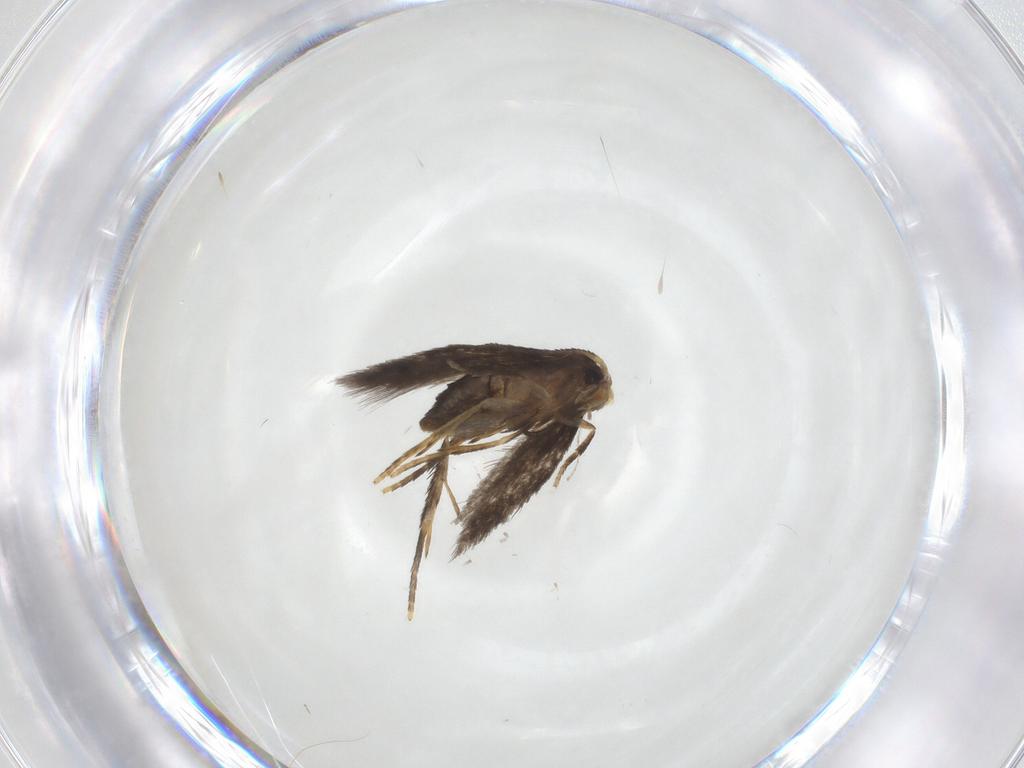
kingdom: Animalia
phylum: Arthropoda
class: Insecta
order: Lepidoptera
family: Nepticulidae
